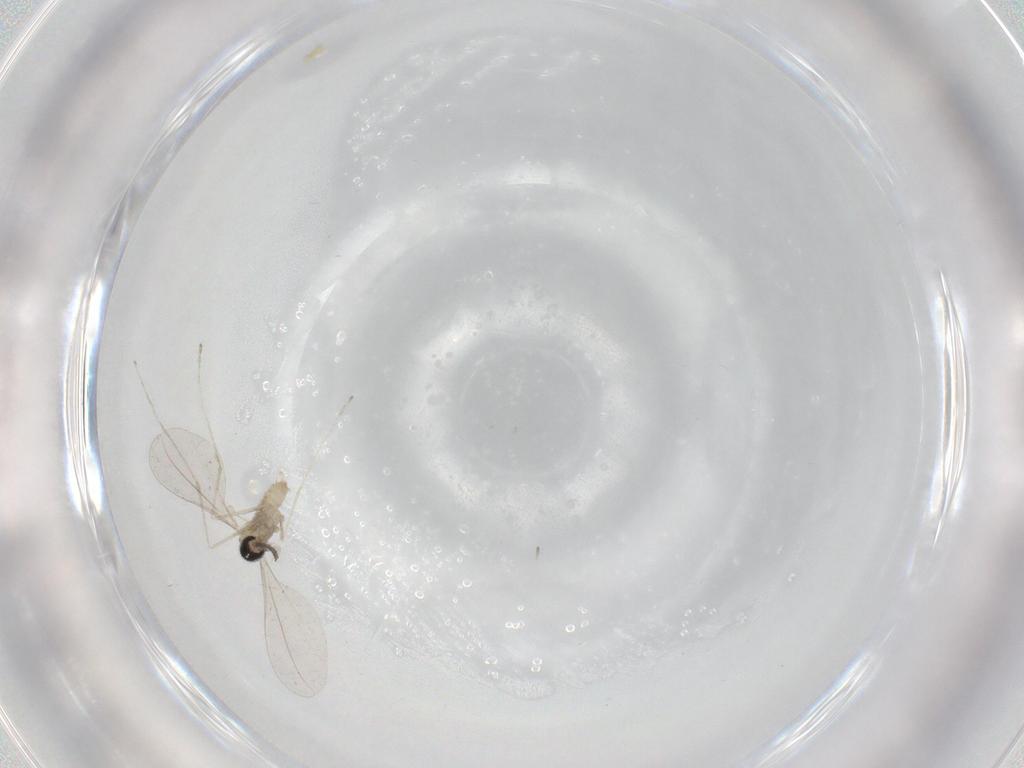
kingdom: Animalia
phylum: Arthropoda
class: Insecta
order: Diptera
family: Cecidomyiidae
